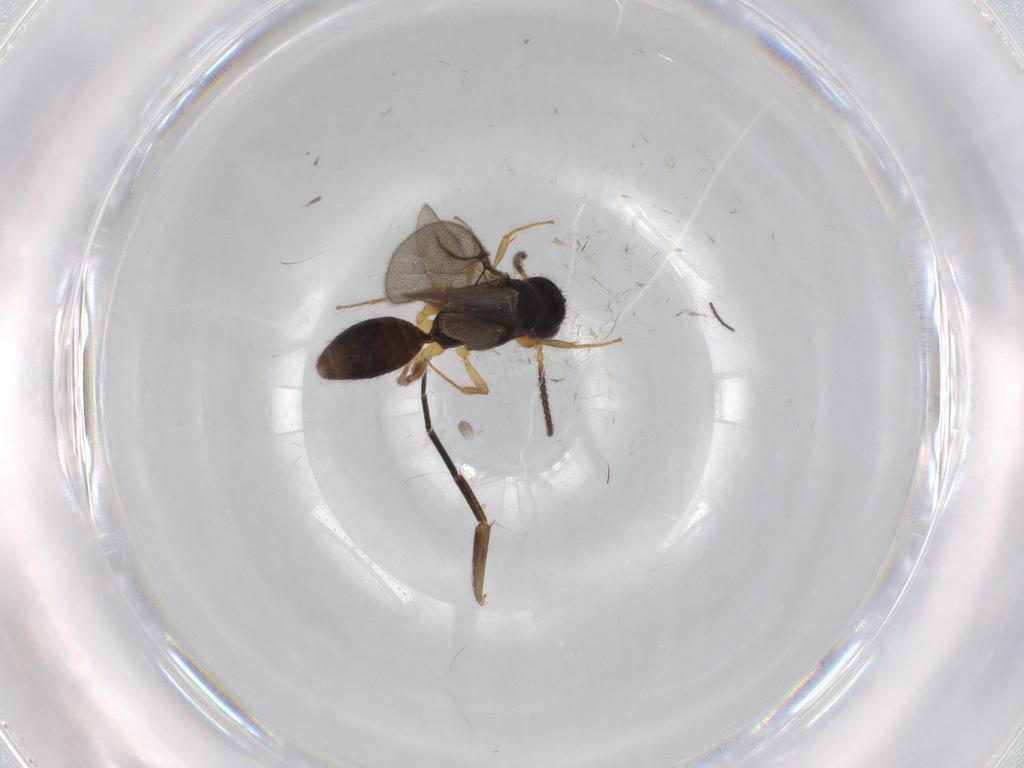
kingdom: Animalia
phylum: Arthropoda
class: Insecta
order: Hymenoptera
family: Bethylidae
